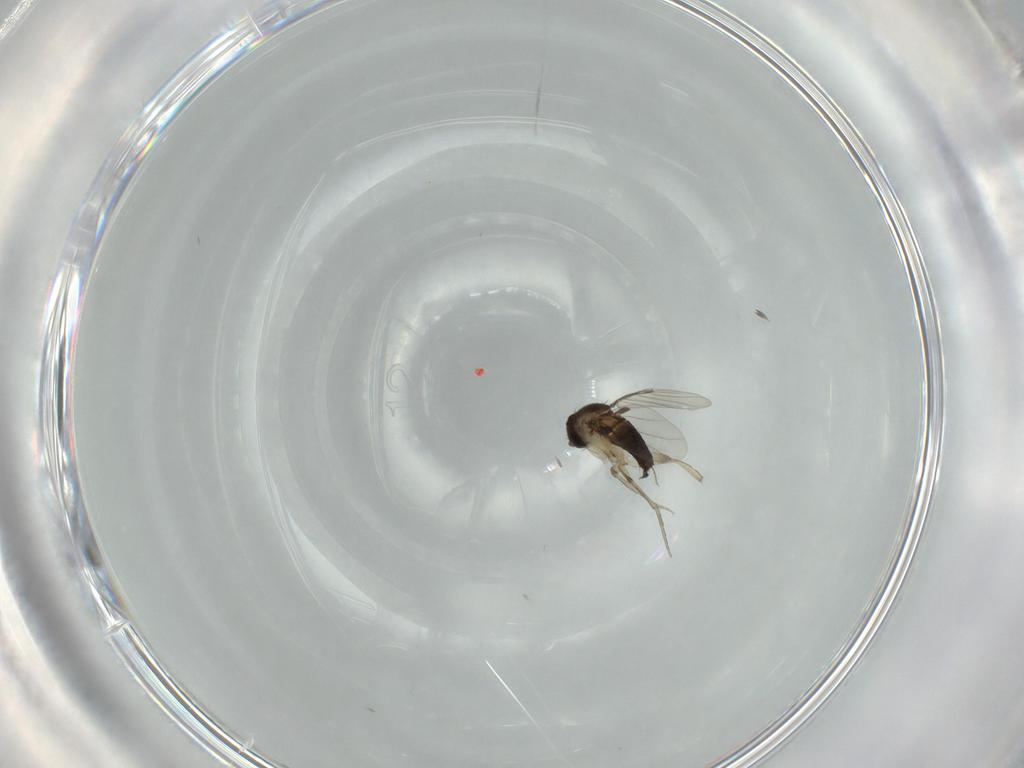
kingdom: Animalia
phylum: Arthropoda
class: Insecta
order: Diptera
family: Phoridae
